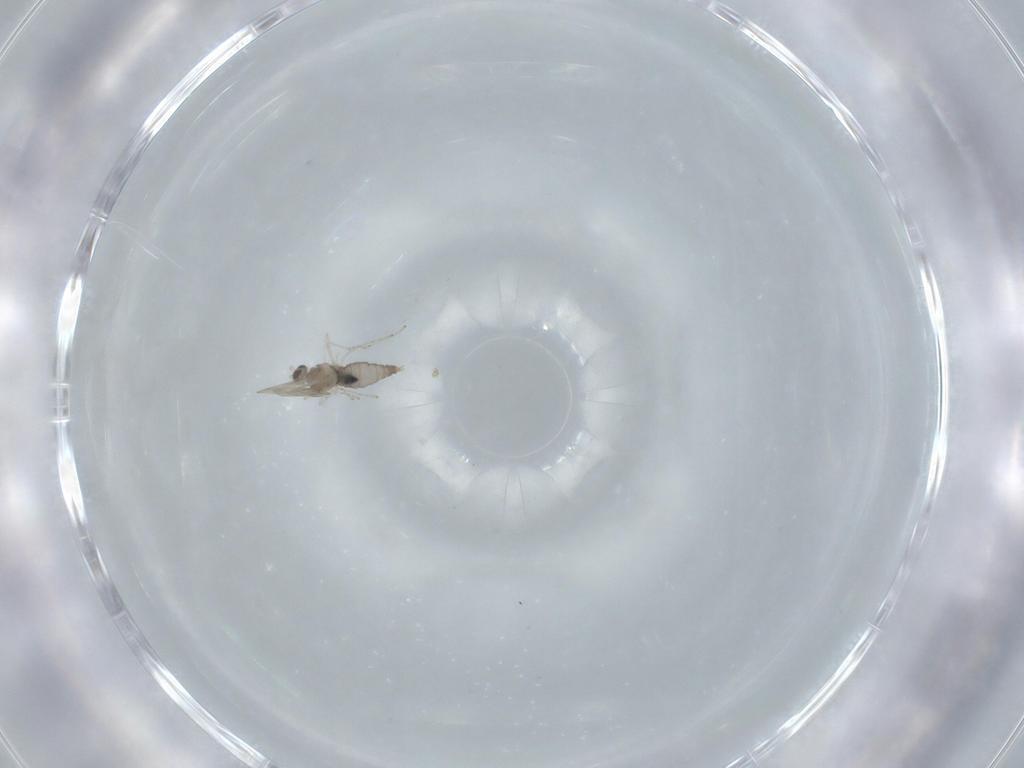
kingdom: Animalia
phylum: Arthropoda
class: Insecta
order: Diptera
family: Cecidomyiidae
